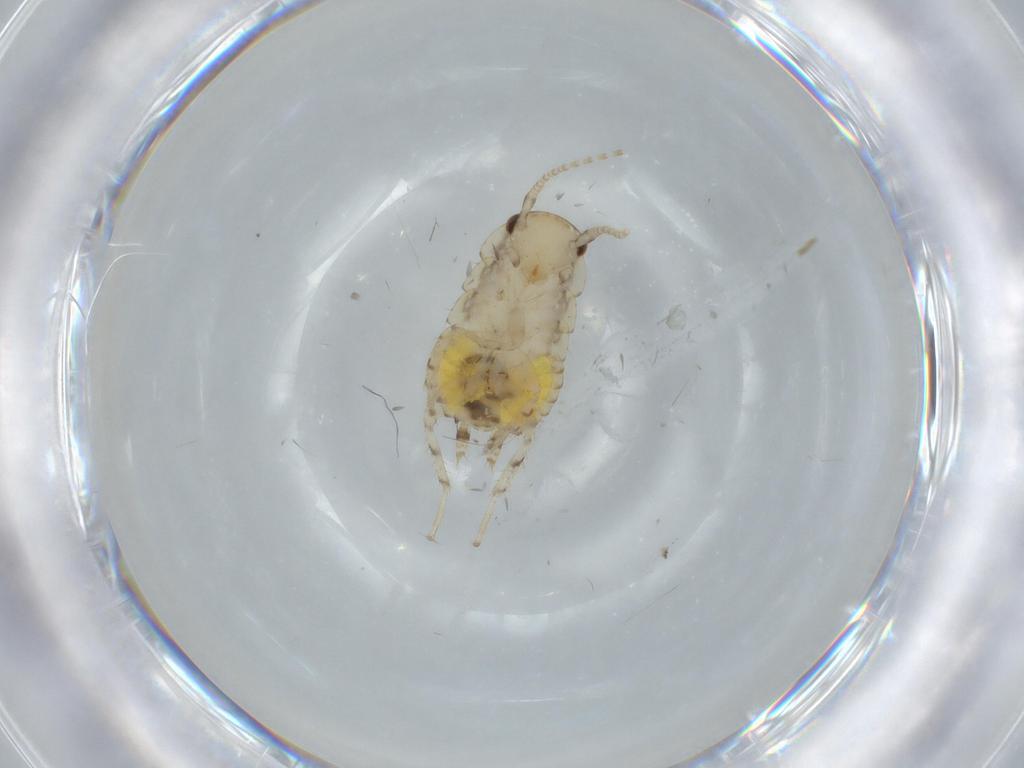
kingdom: Animalia
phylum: Arthropoda
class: Insecta
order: Blattodea
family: Ectobiidae
